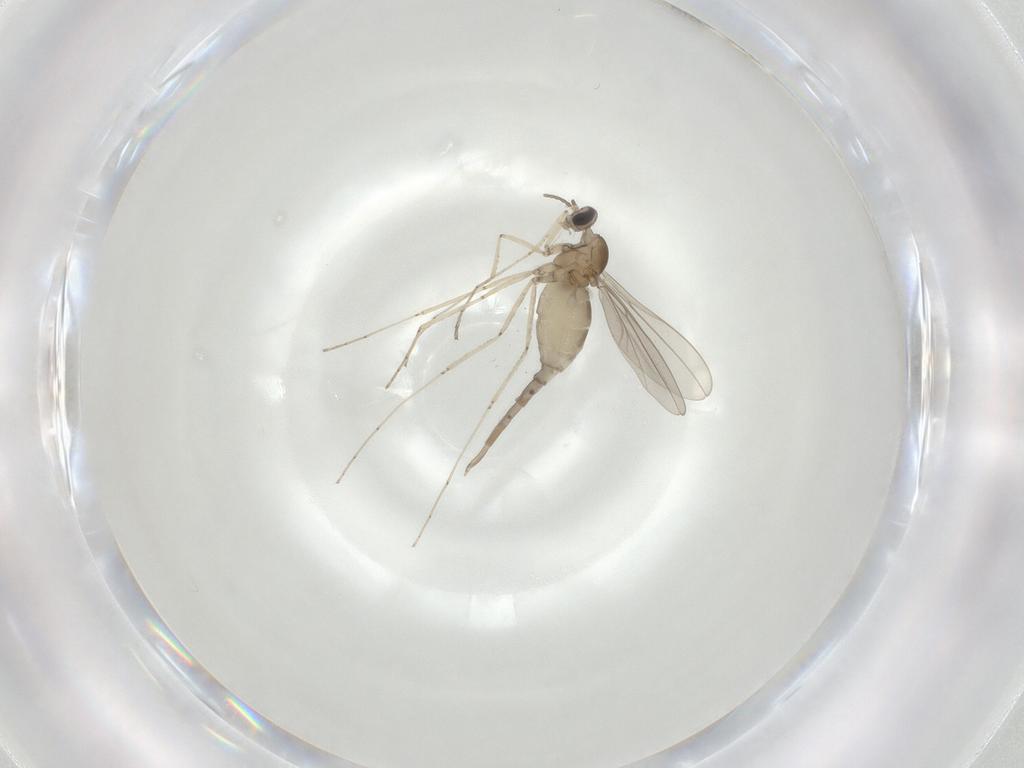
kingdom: Animalia
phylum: Arthropoda
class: Insecta
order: Diptera
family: Cecidomyiidae
